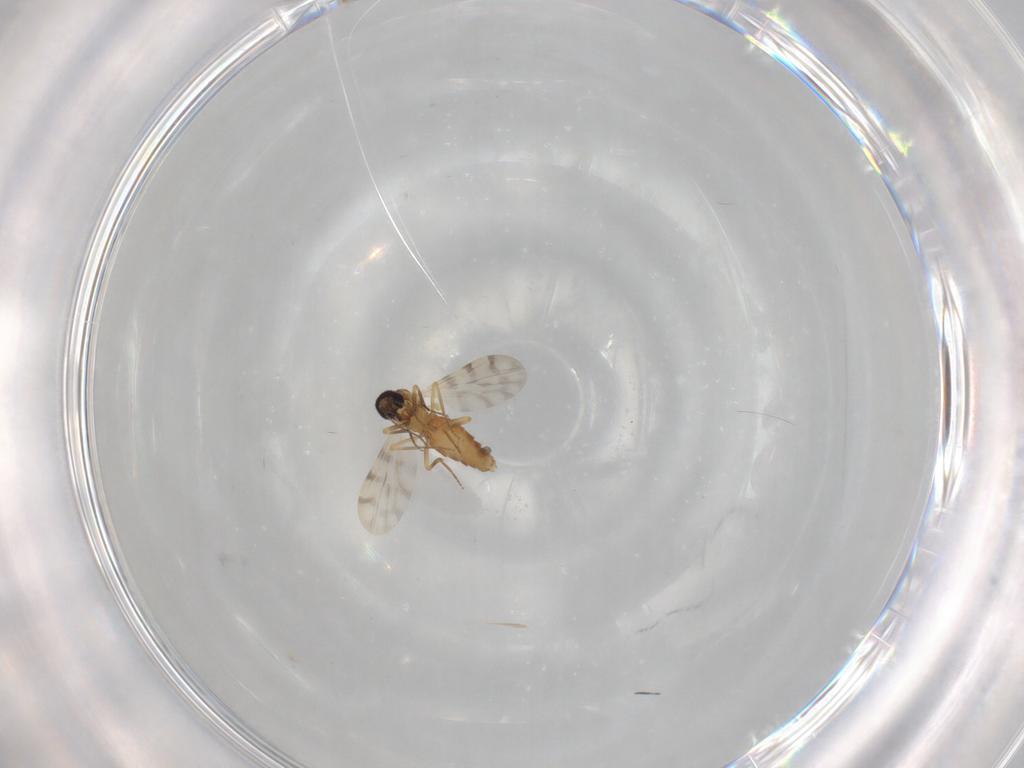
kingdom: Animalia
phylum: Arthropoda
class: Insecta
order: Diptera
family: Ceratopogonidae
